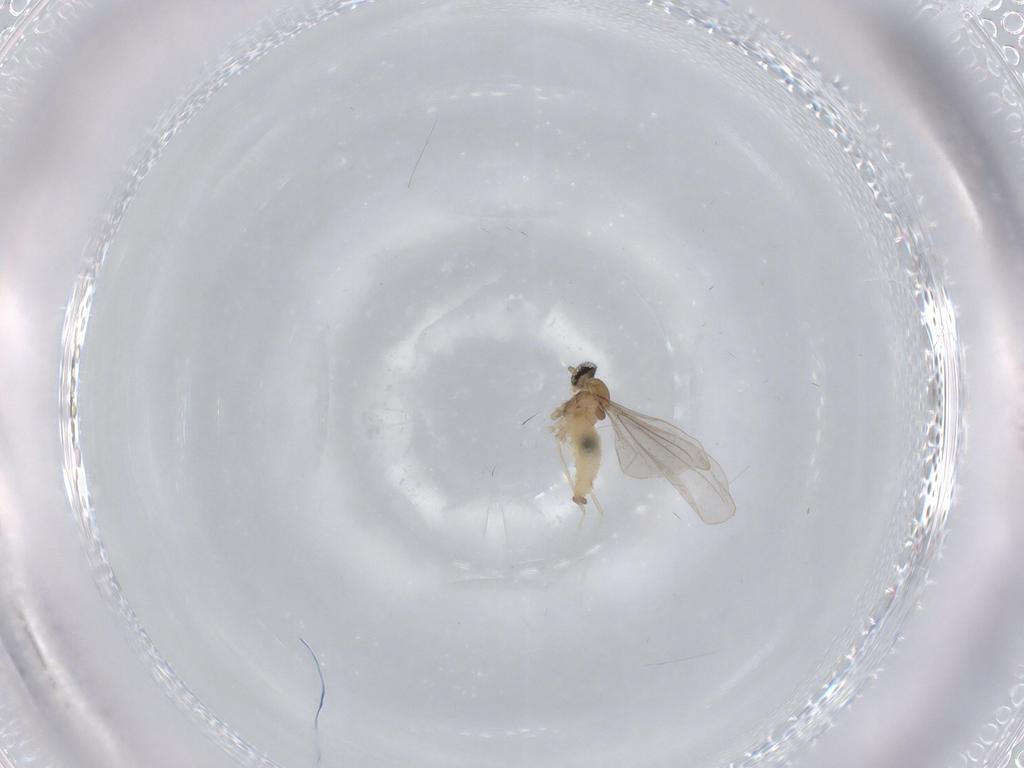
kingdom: Animalia
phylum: Arthropoda
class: Insecta
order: Diptera
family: Cecidomyiidae
